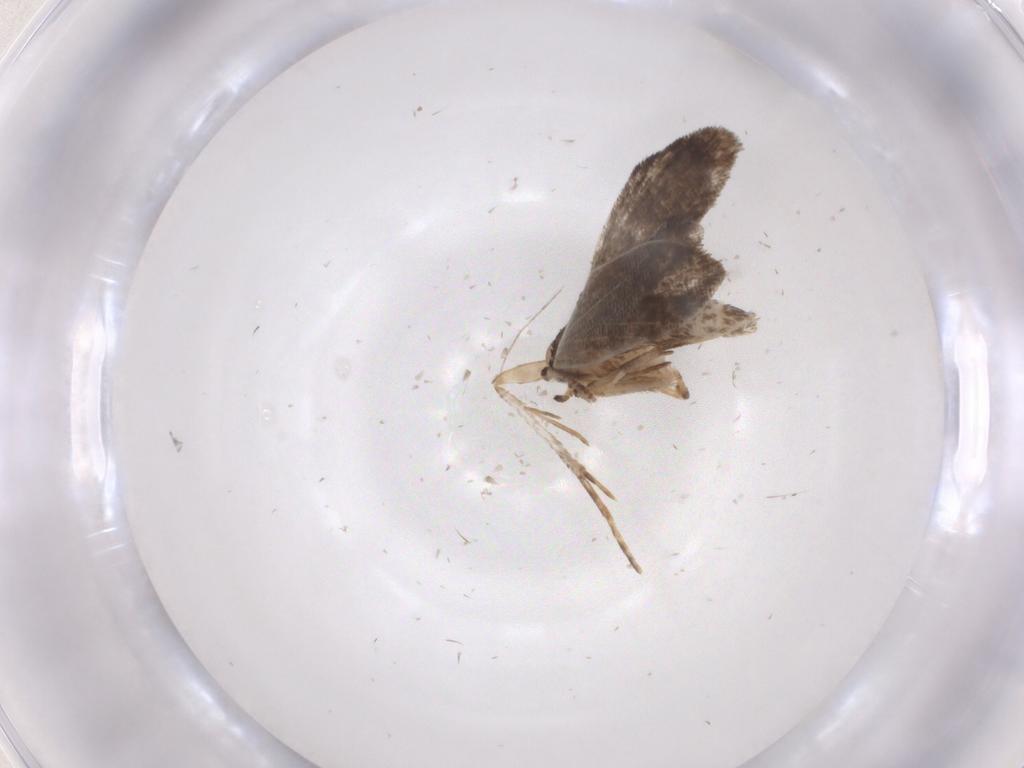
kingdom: Animalia
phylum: Arthropoda
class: Insecta
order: Lepidoptera
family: Psychidae
